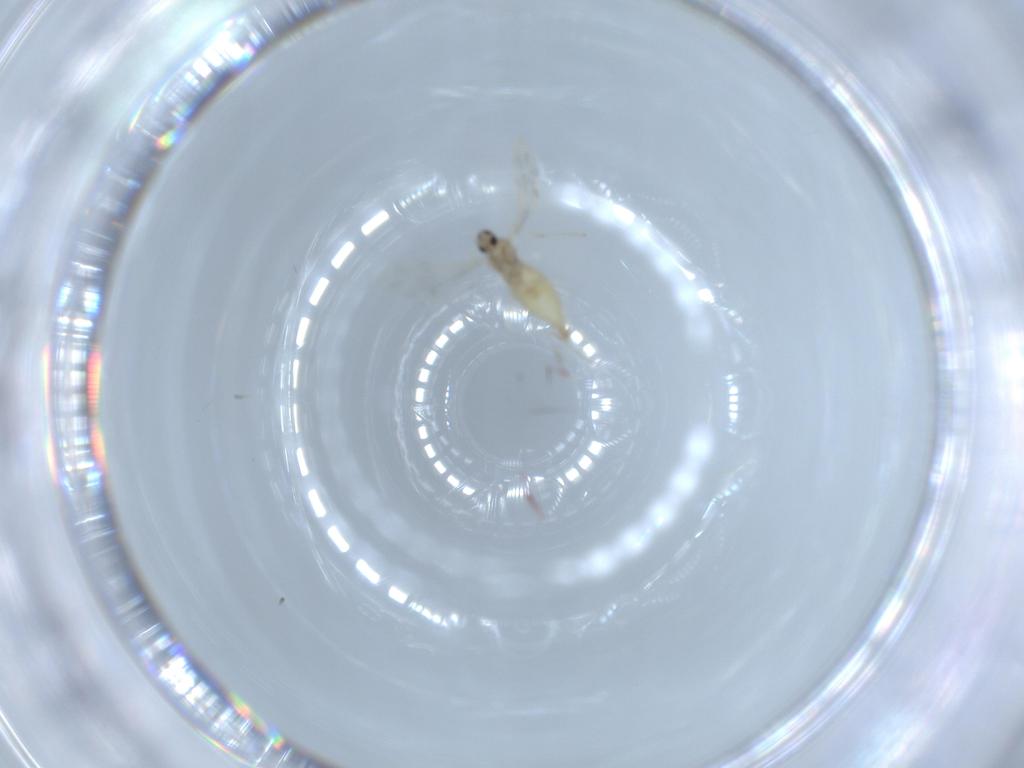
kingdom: Animalia
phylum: Arthropoda
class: Insecta
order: Diptera
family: Cecidomyiidae
